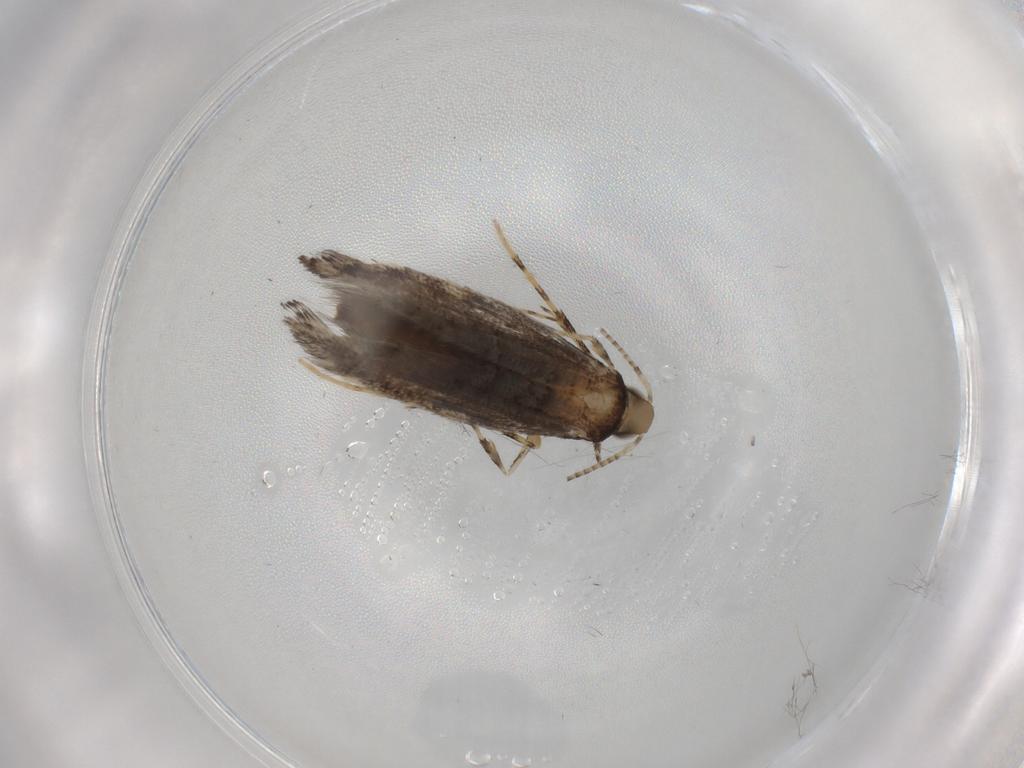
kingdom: Animalia
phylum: Arthropoda
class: Insecta
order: Lepidoptera
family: Gracillariidae
